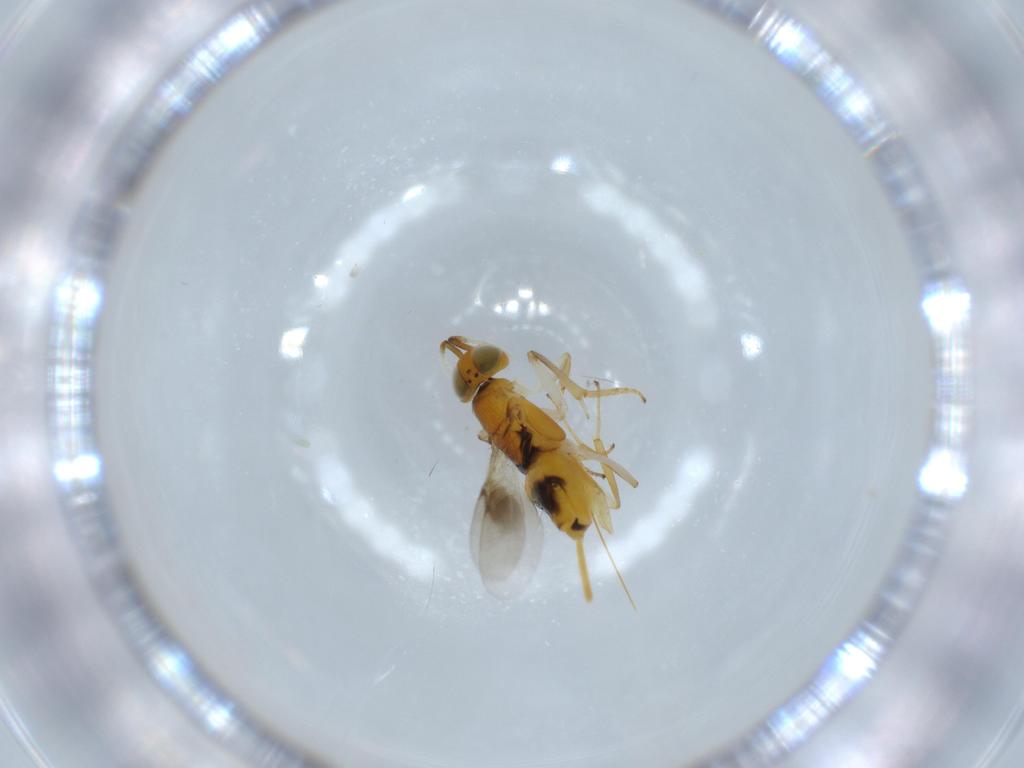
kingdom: Animalia
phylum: Arthropoda
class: Insecta
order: Hymenoptera
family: Encyrtidae
